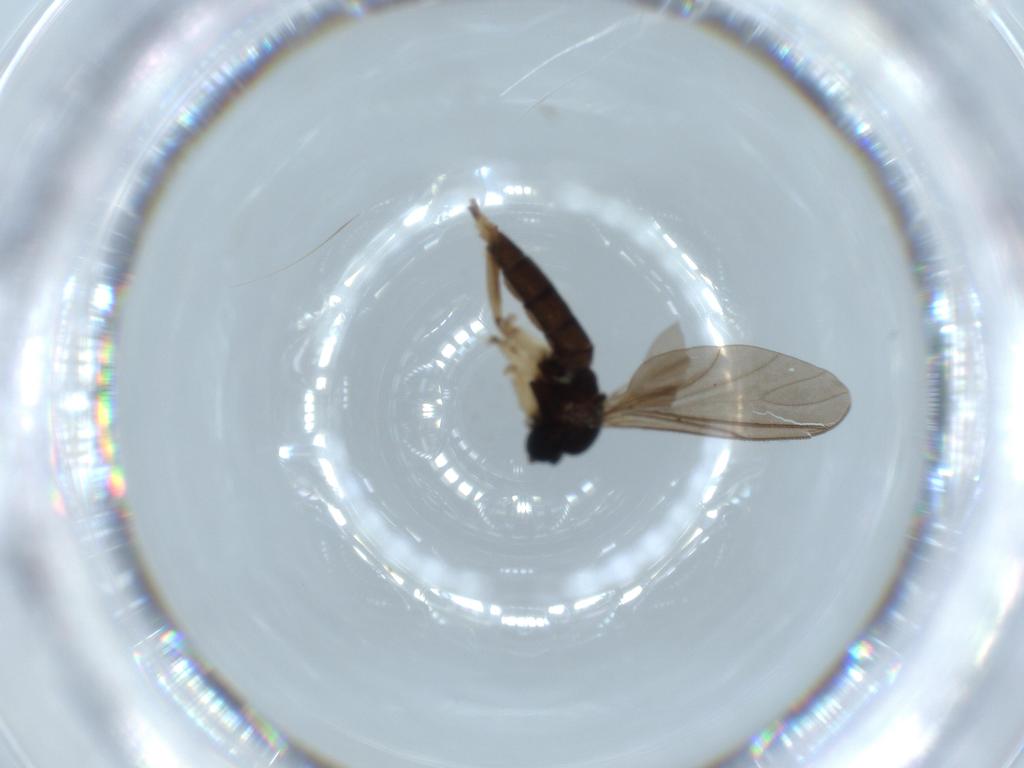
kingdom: Animalia
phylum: Arthropoda
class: Insecta
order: Diptera
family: Sciaridae
